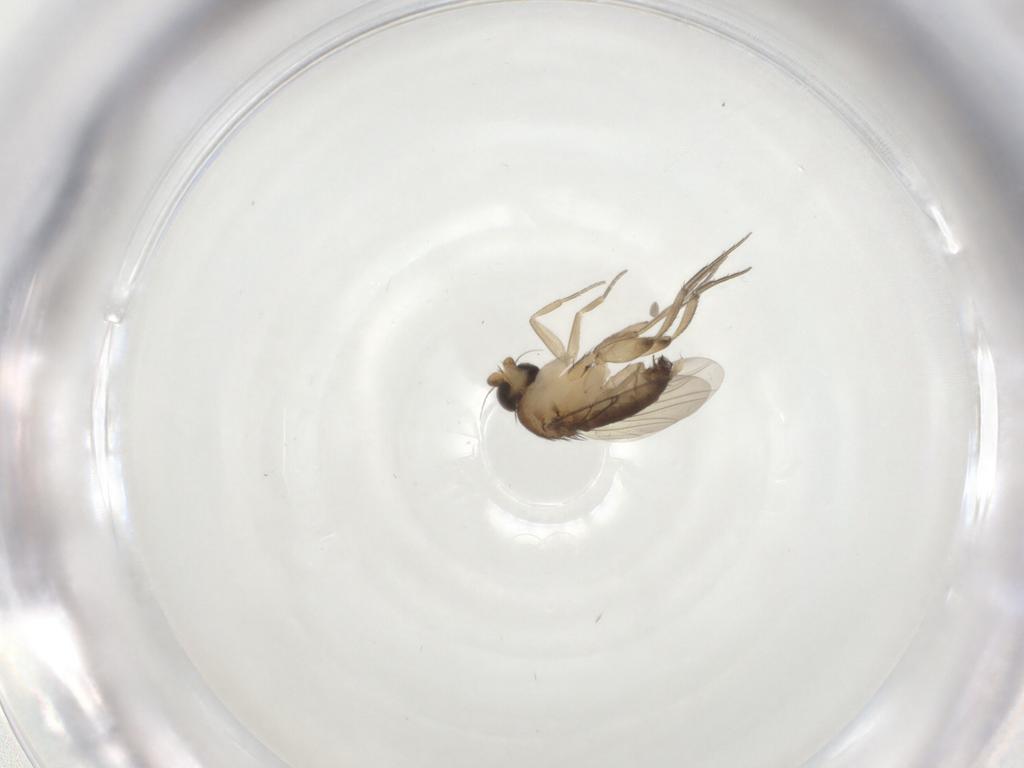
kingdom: Animalia
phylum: Arthropoda
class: Insecta
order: Diptera
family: Phoridae
